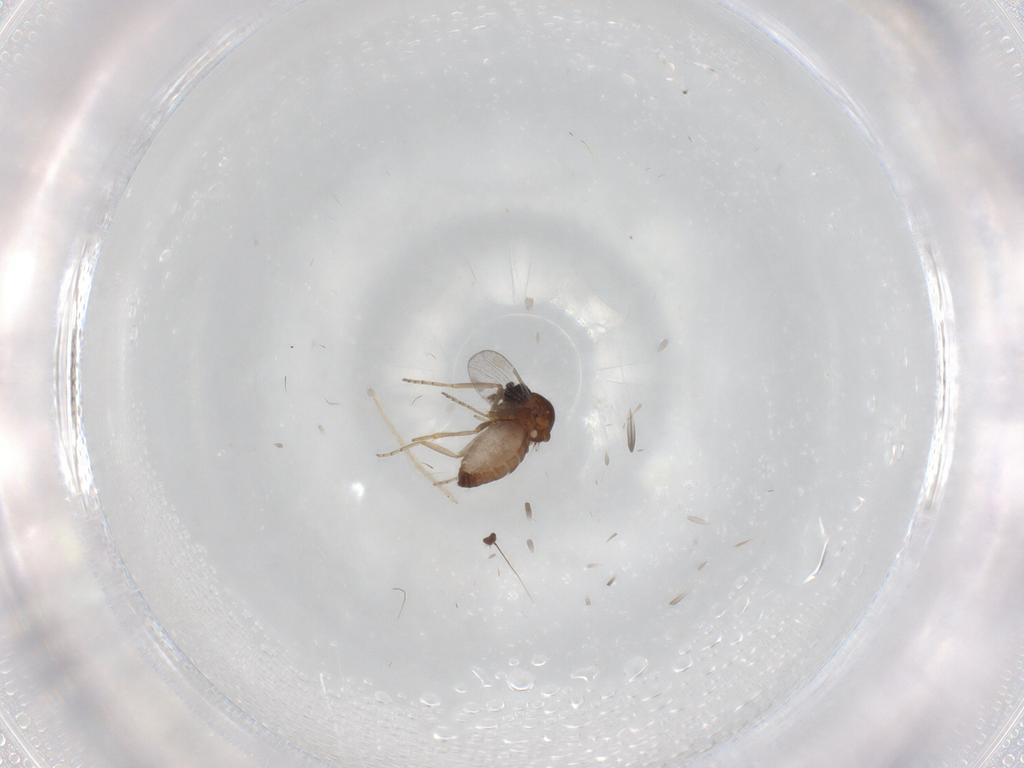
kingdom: Animalia
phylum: Arthropoda
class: Insecta
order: Diptera
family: Ceratopogonidae
